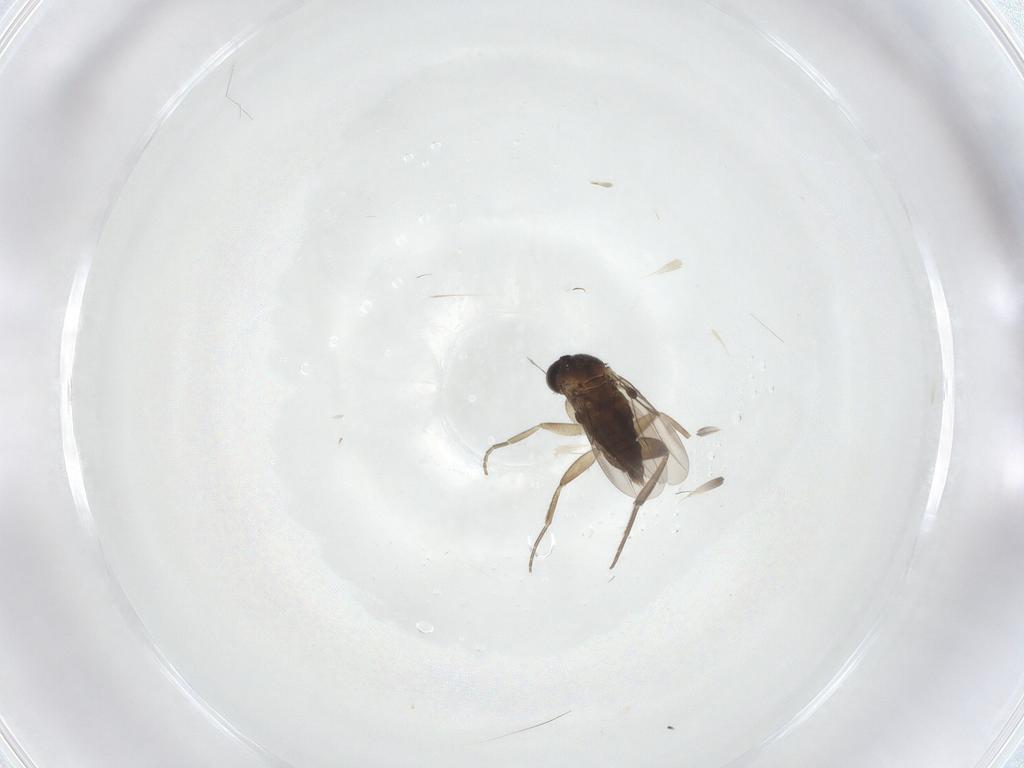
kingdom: Animalia
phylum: Arthropoda
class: Insecta
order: Diptera
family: Phoridae
